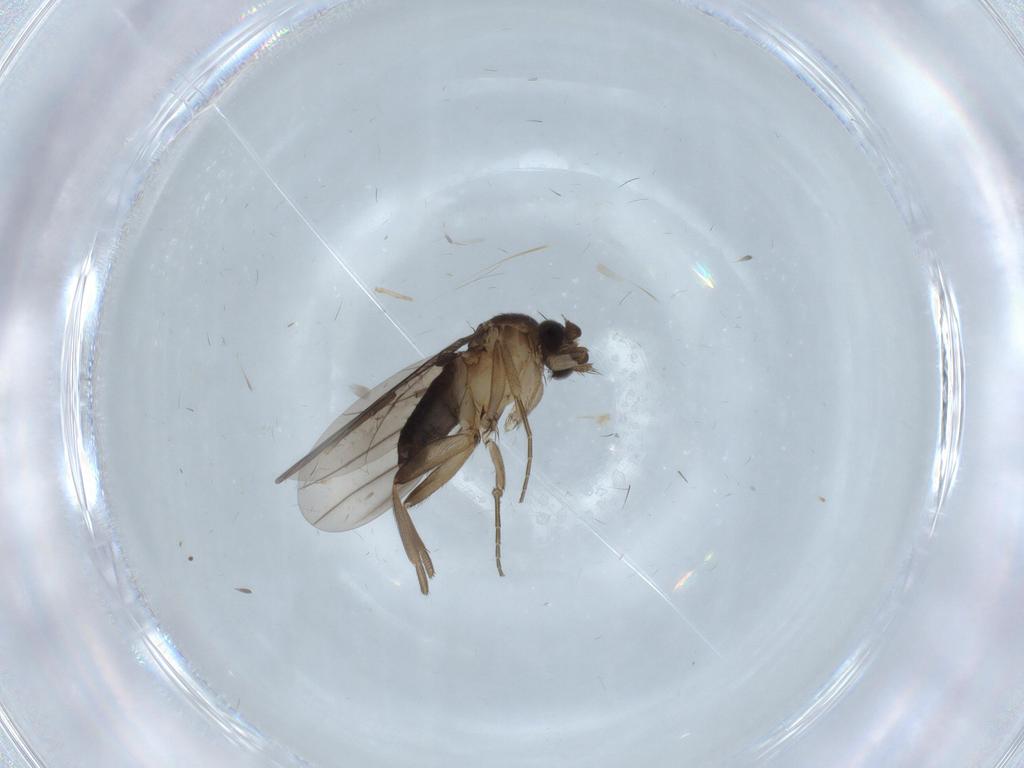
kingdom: Animalia
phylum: Arthropoda
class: Insecta
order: Diptera
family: Phoridae
